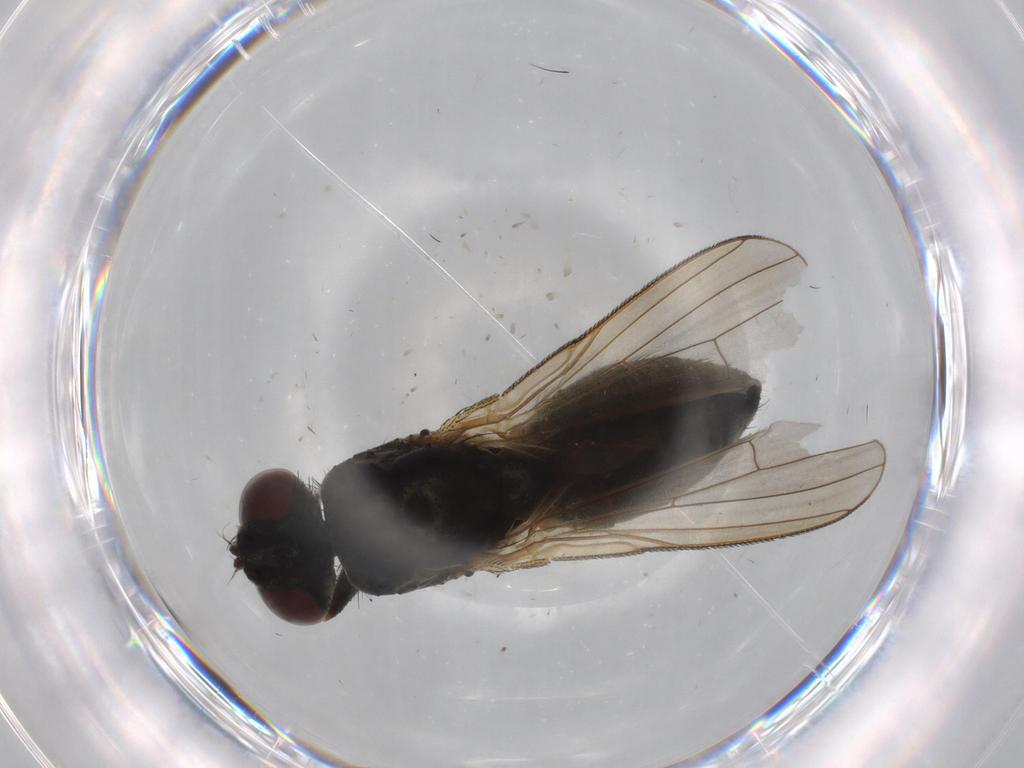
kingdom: Animalia
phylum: Arthropoda
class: Insecta
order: Diptera
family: Muscidae
